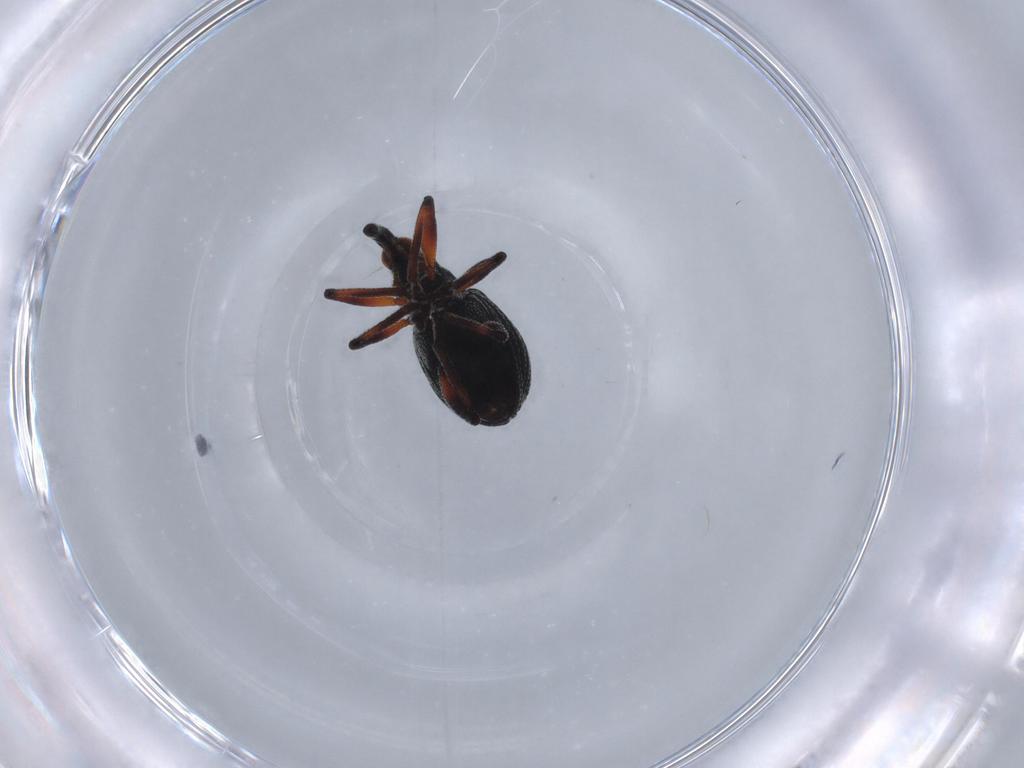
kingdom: Animalia
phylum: Arthropoda
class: Insecta
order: Coleoptera
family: Brentidae
